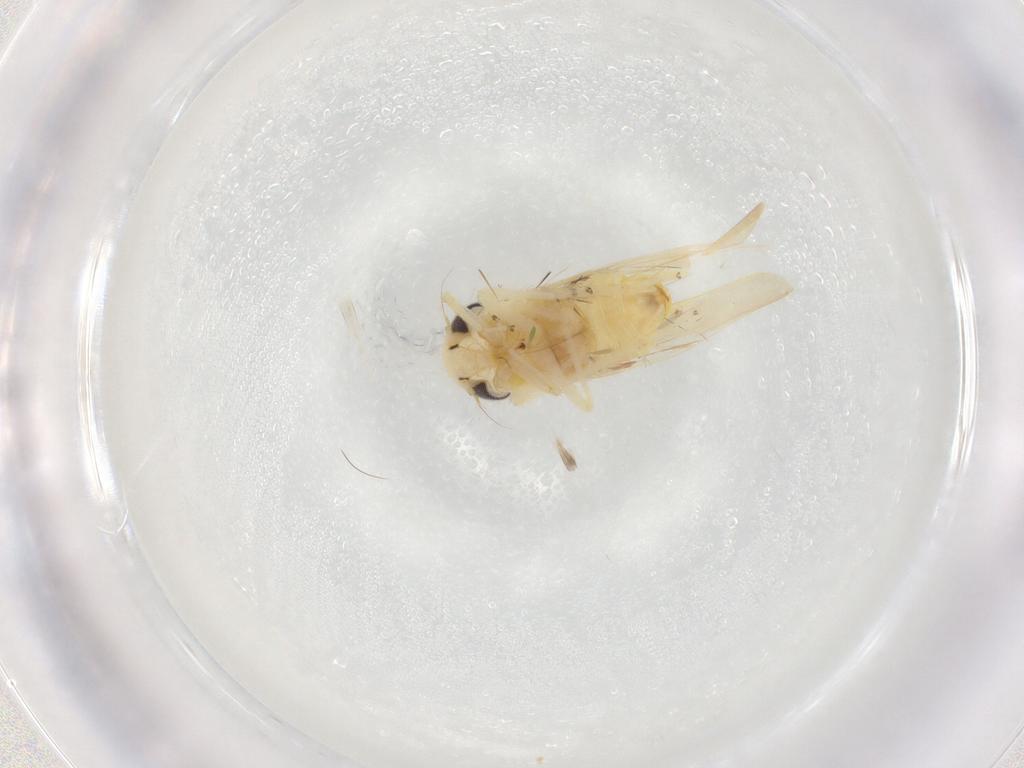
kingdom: Animalia
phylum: Arthropoda
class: Insecta
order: Hemiptera
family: Cicadellidae
